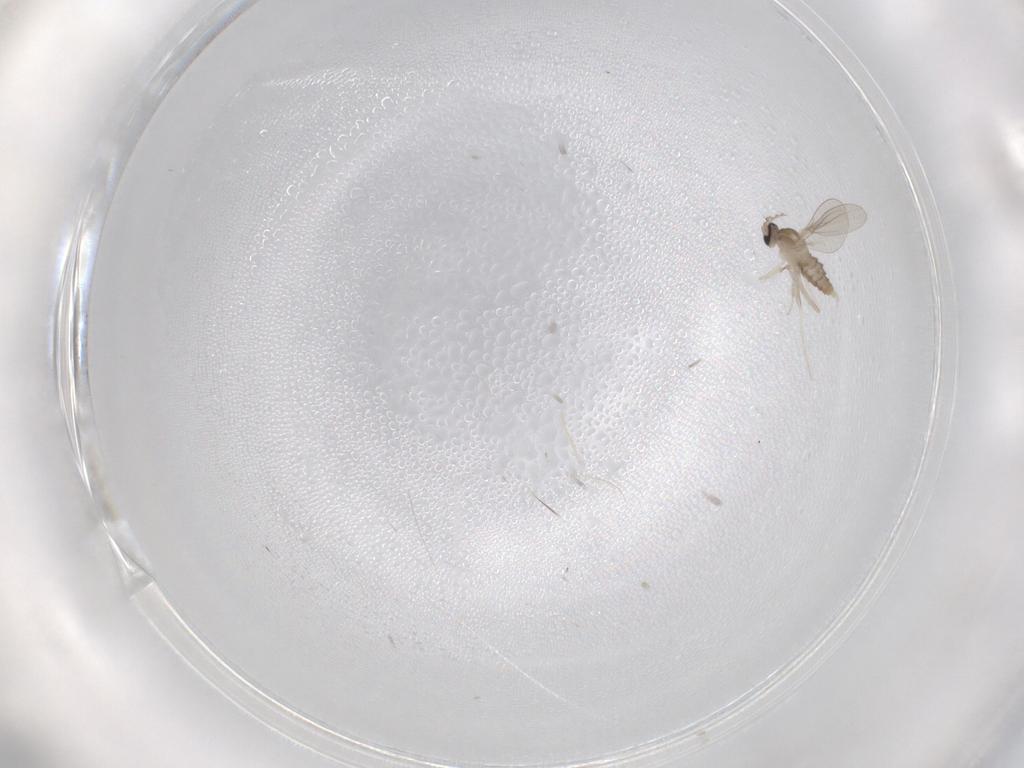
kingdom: Animalia
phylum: Arthropoda
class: Insecta
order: Diptera
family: Cecidomyiidae
